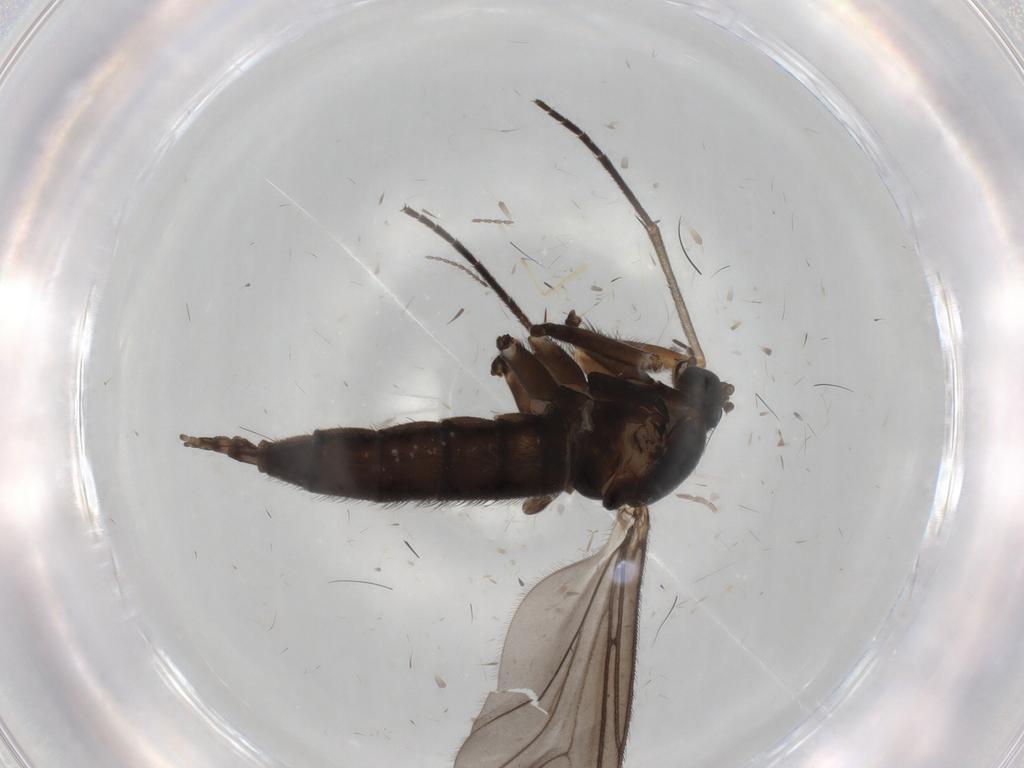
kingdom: Animalia
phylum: Arthropoda
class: Insecta
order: Diptera
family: Sciaridae
